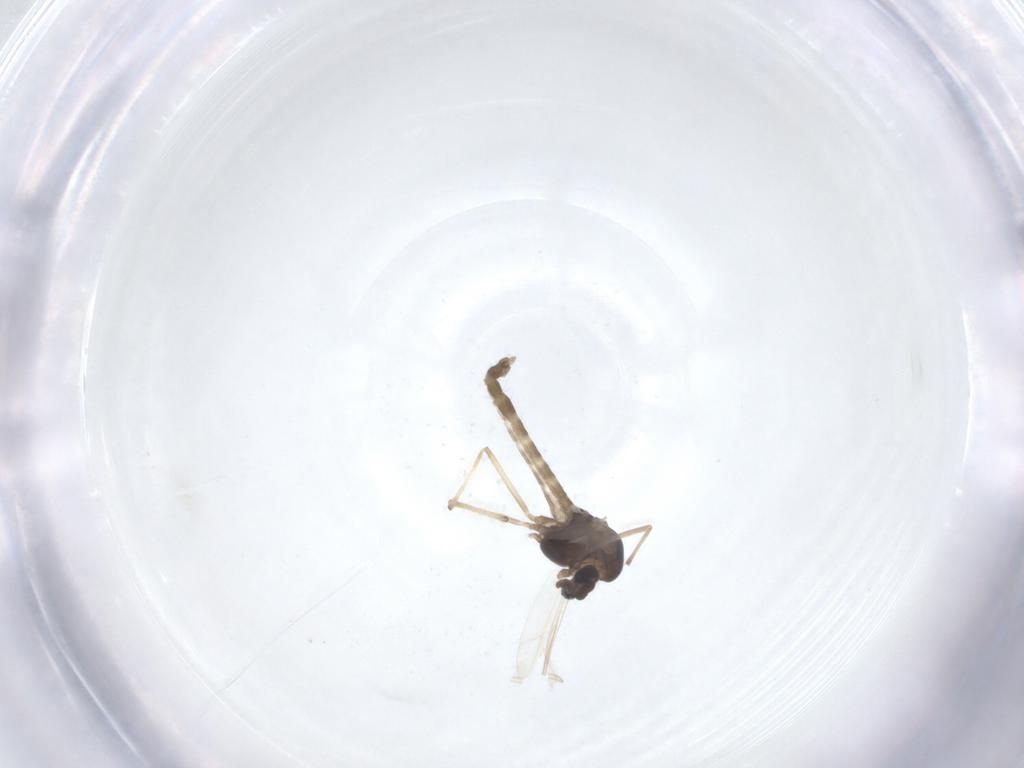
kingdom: Animalia
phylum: Arthropoda
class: Insecta
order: Diptera
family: Chironomidae
